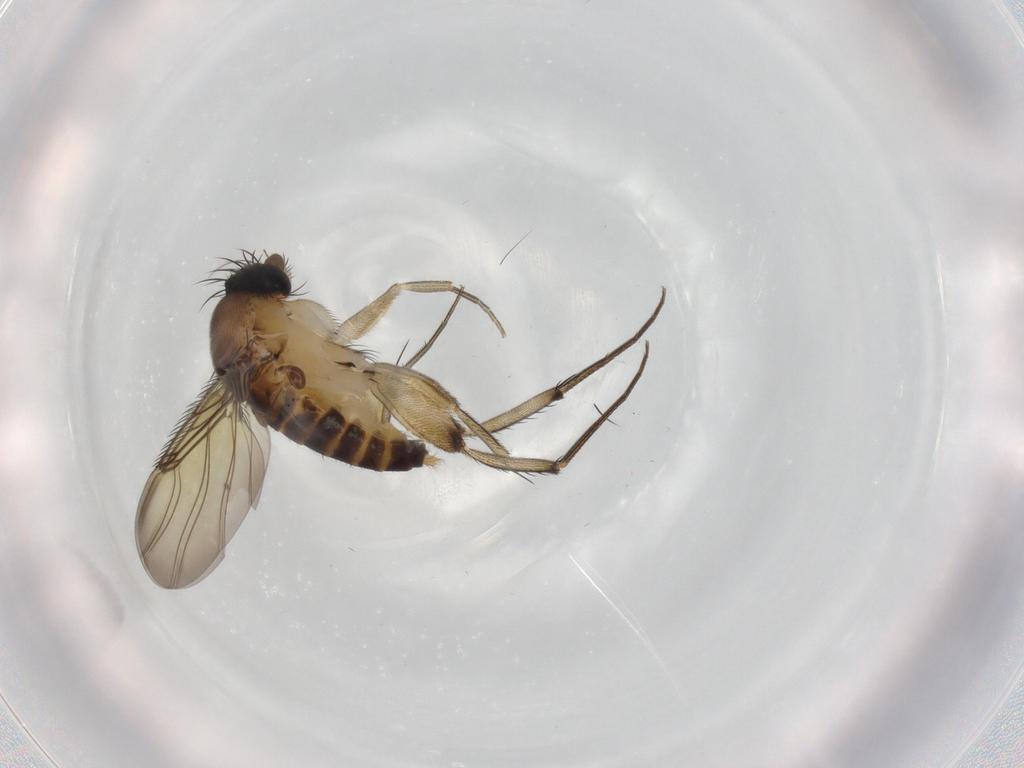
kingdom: Animalia
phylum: Arthropoda
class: Insecta
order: Diptera
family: Phoridae
